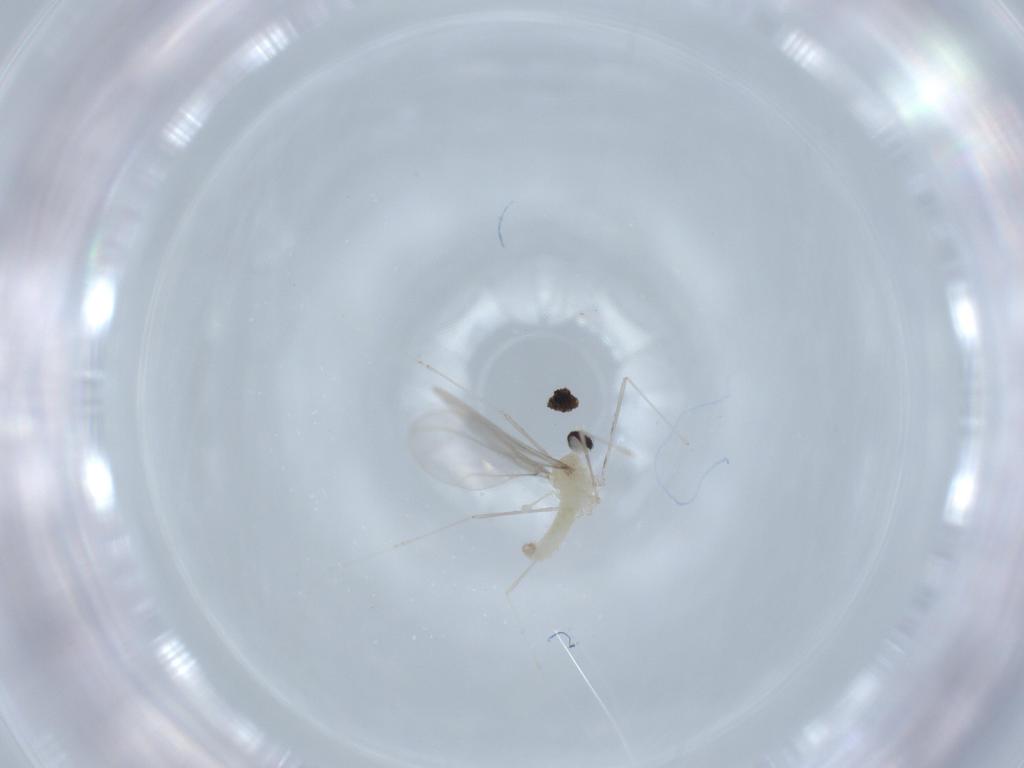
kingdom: Animalia
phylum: Arthropoda
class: Insecta
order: Diptera
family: Cecidomyiidae
